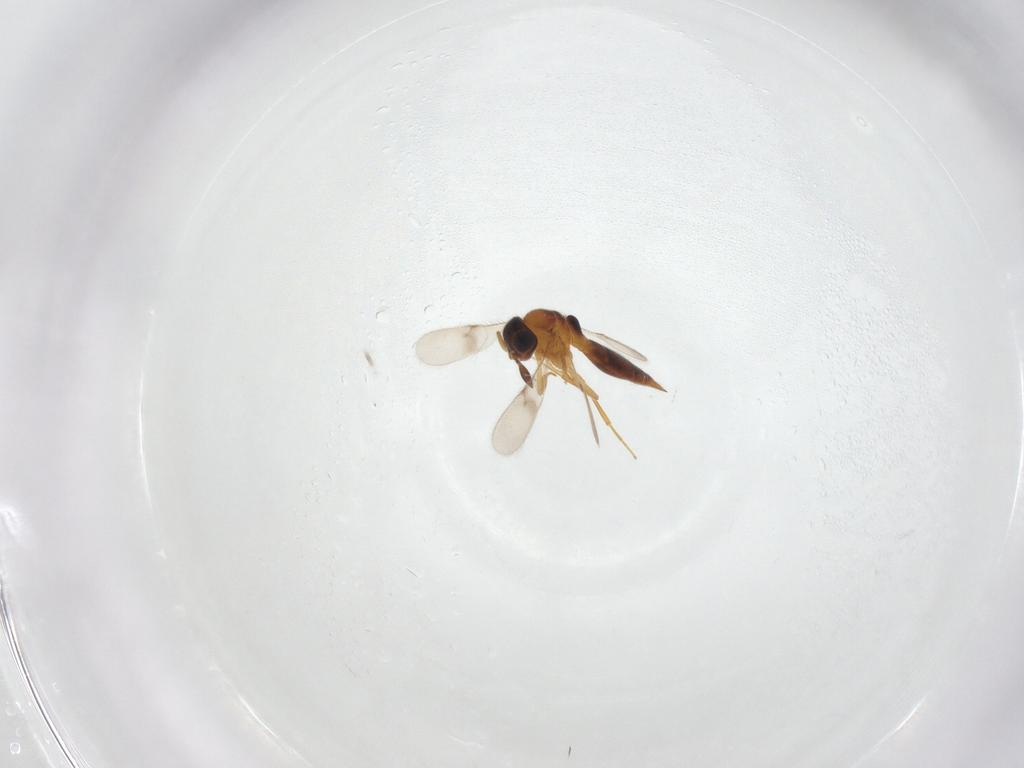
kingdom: Animalia
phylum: Arthropoda
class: Insecta
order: Hymenoptera
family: Scelionidae
